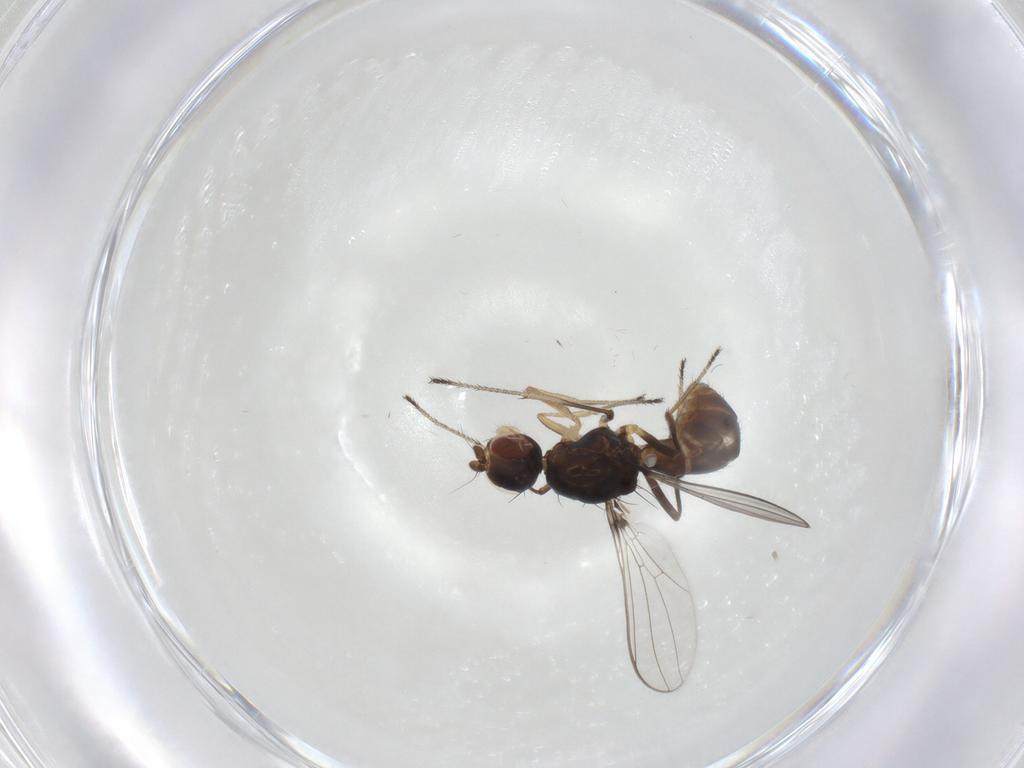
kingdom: Animalia
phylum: Arthropoda
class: Insecta
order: Diptera
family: Sepsidae
